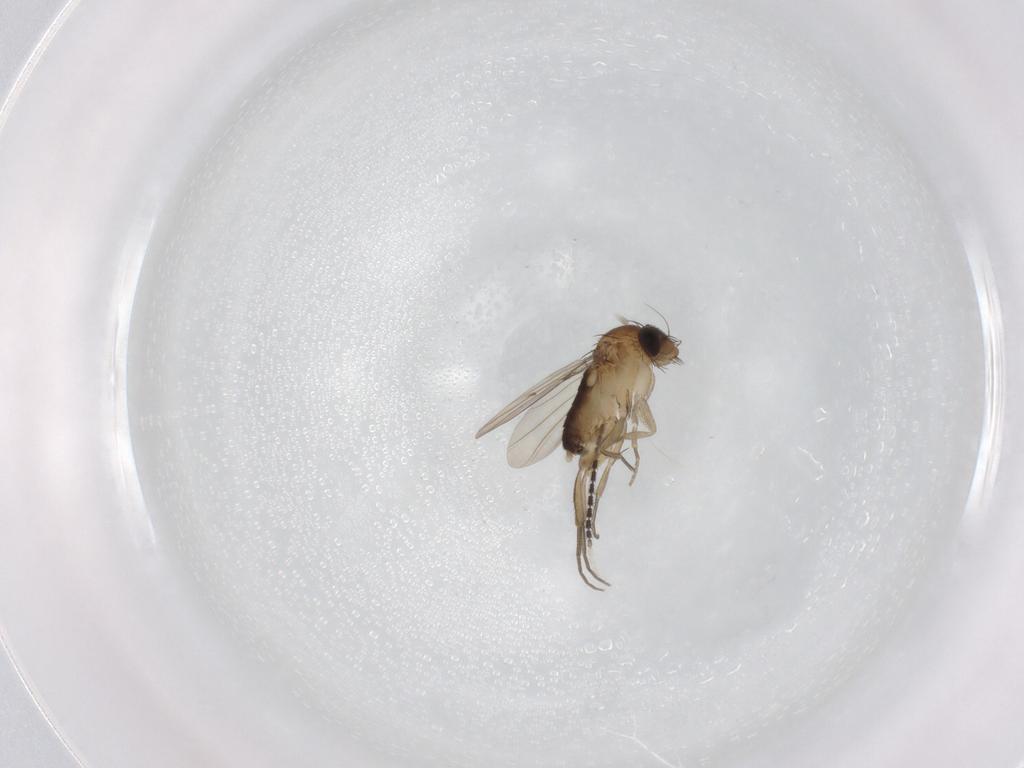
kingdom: Animalia
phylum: Arthropoda
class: Insecta
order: Diptera
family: Phoridae
